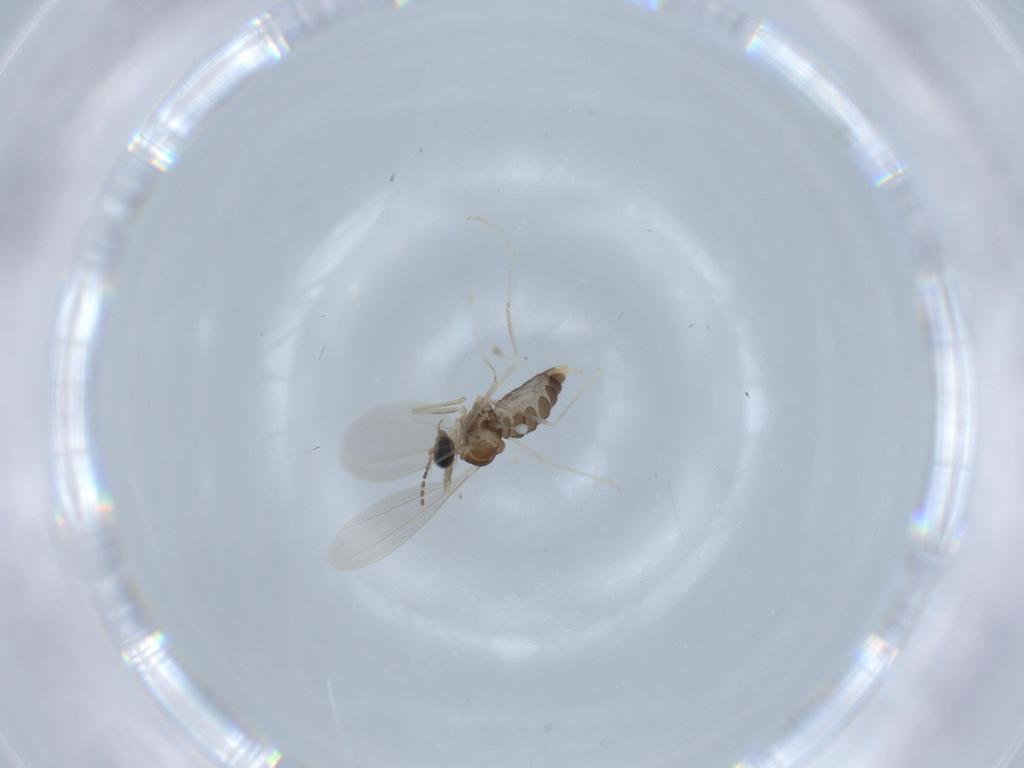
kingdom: Animalia
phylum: Arthropoda
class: Insecta
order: Diptera
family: Cecidomyiidae
